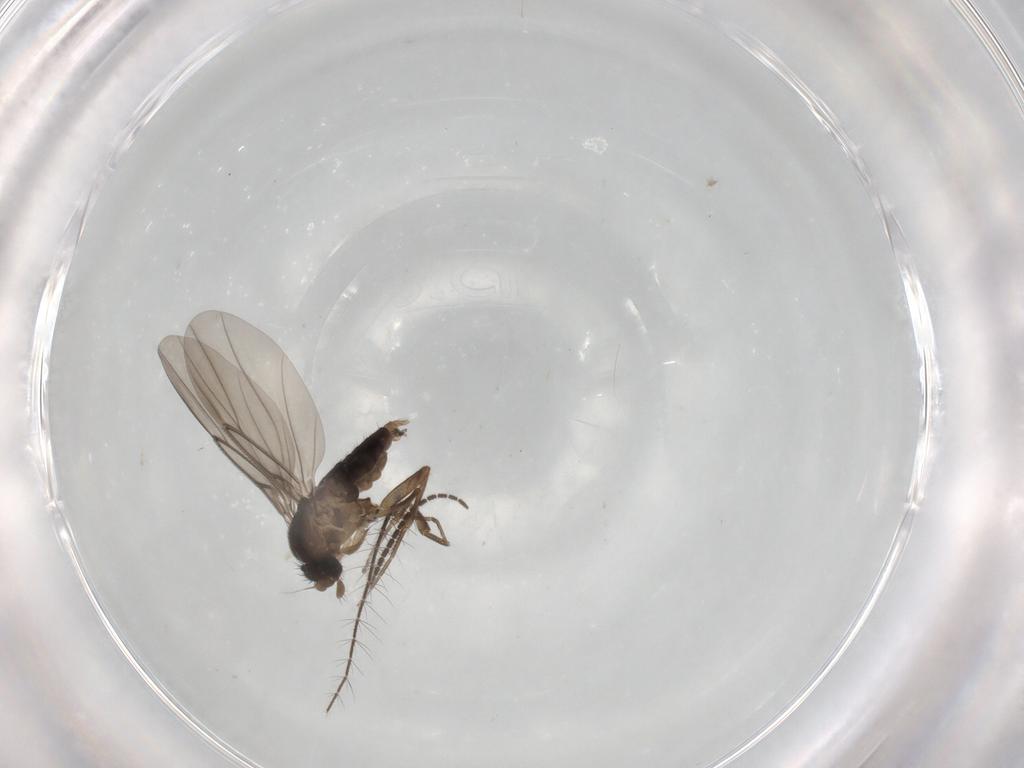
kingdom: Animalia
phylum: Arthropoda
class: Insecta
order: Diptera
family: Phoridae
